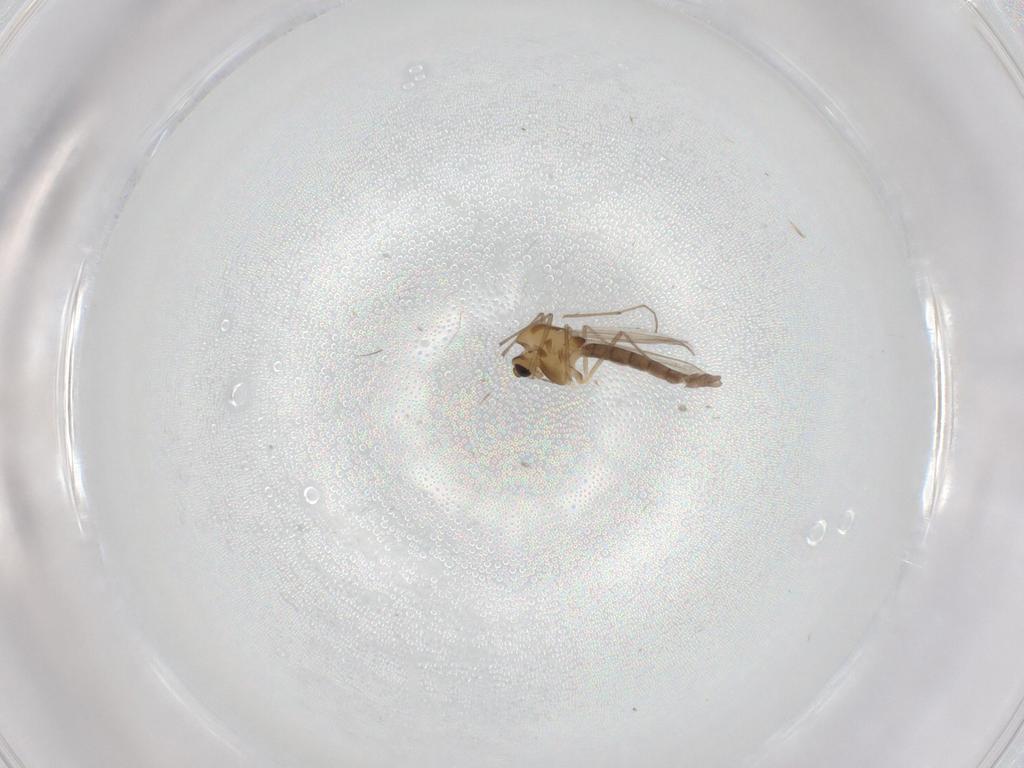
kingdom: Animalia
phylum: Arthropoda
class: Insecta
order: Diptera
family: Chironomidae
